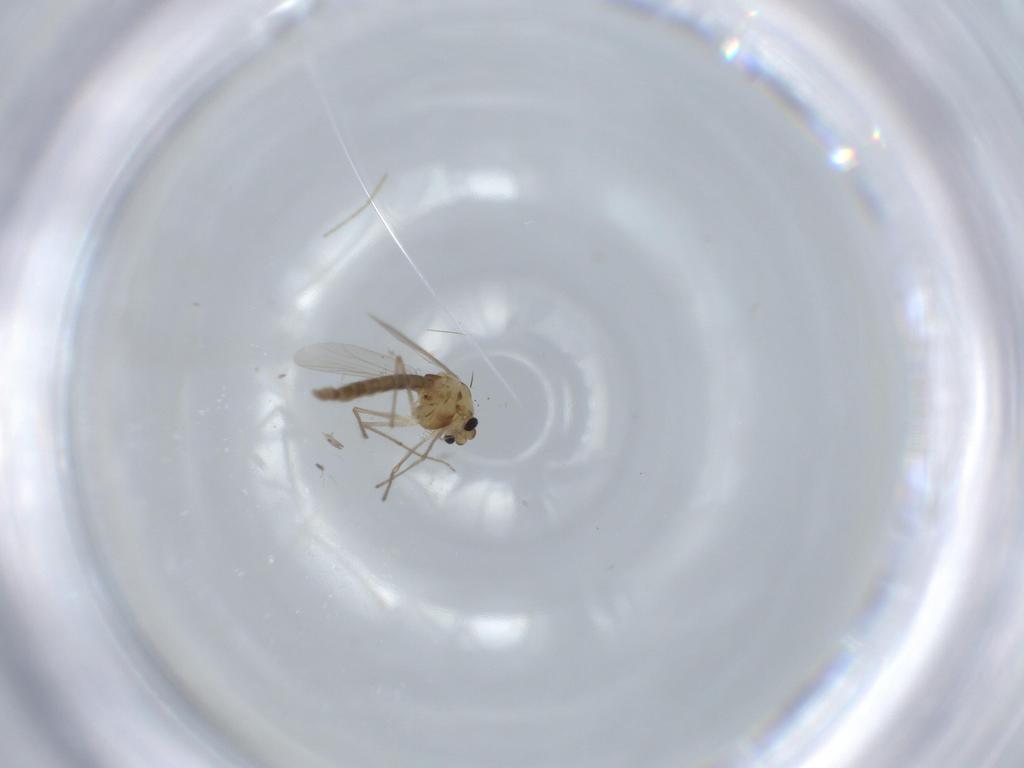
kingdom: Animalia
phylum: Arthropoda
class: Insecta
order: Diptera
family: Chironomidae
